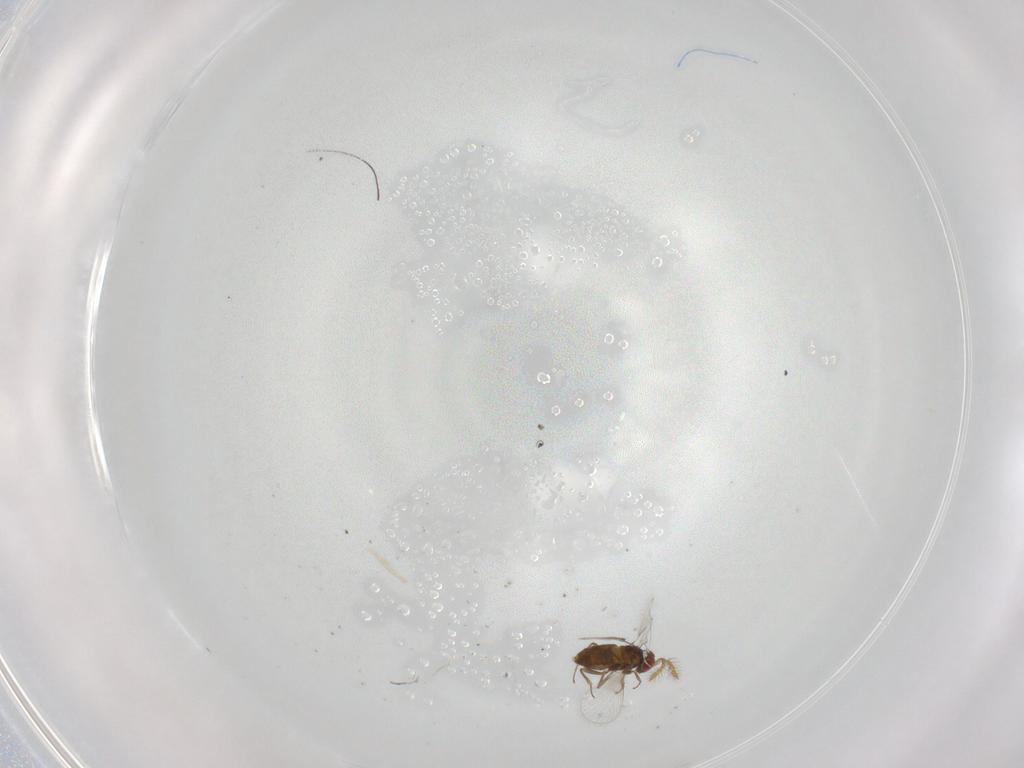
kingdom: Animalia
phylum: Arthropoda
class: Insecta
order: Hymenoptera
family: Trichogrammatidae
